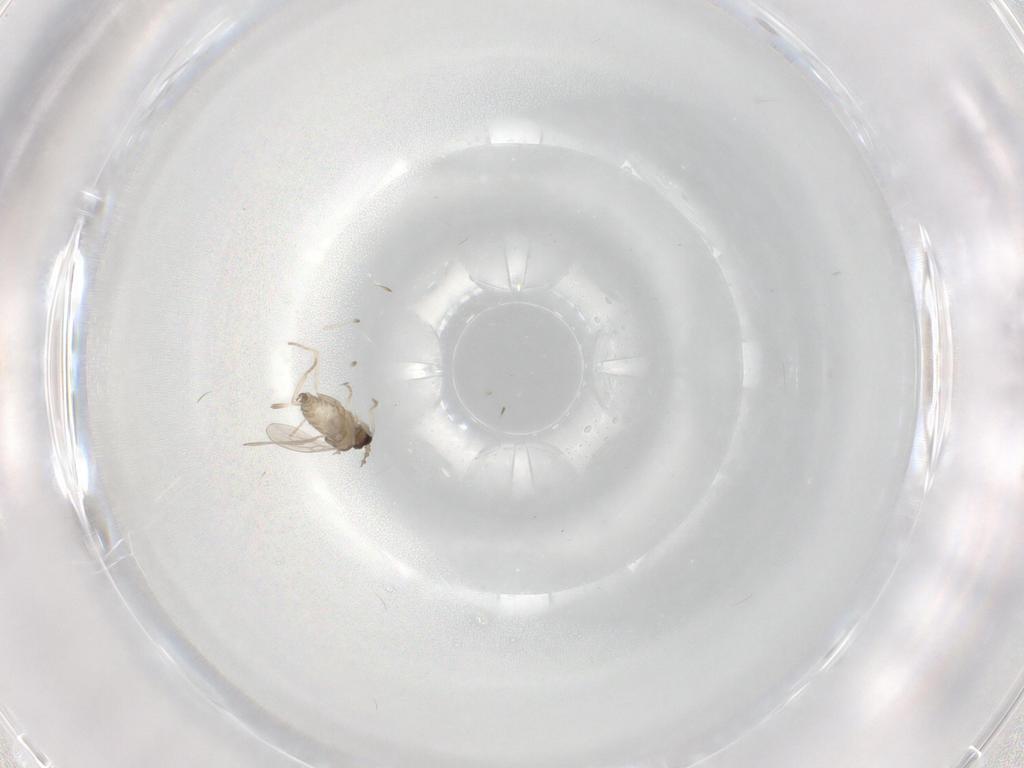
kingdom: Animalia
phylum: Arthropoda
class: Insecta
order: Diptera
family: Cecidomyiidae
